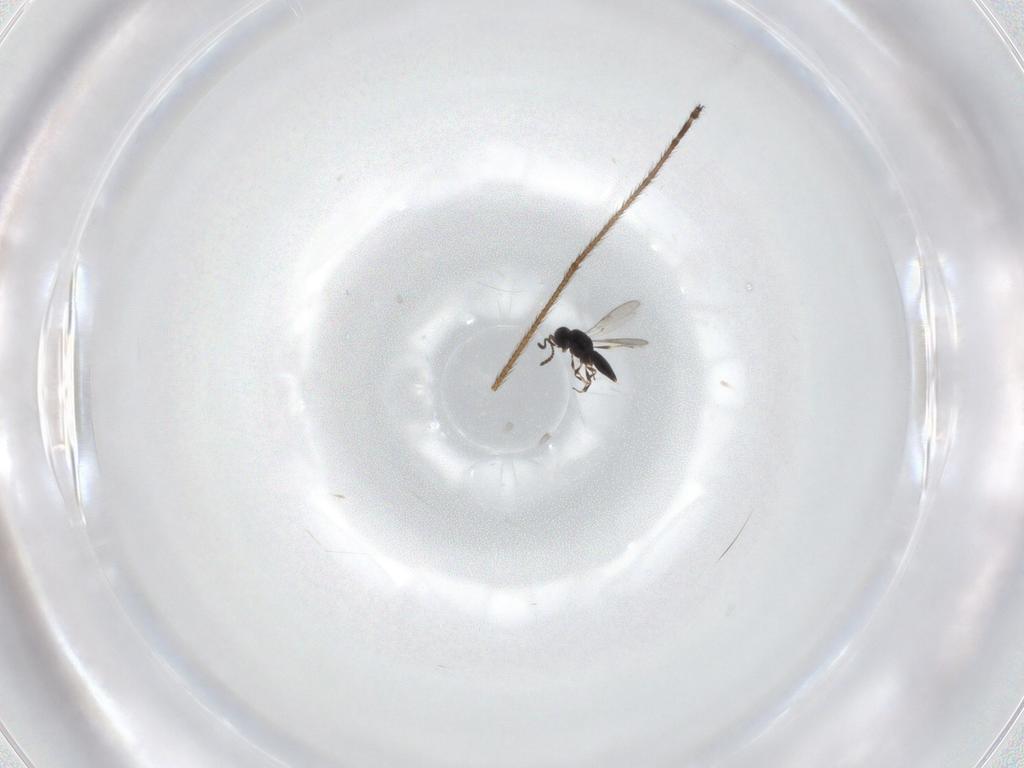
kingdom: Animalia
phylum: Arthropoda
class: Insecta
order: Hymenoptera
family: Scelionidae
